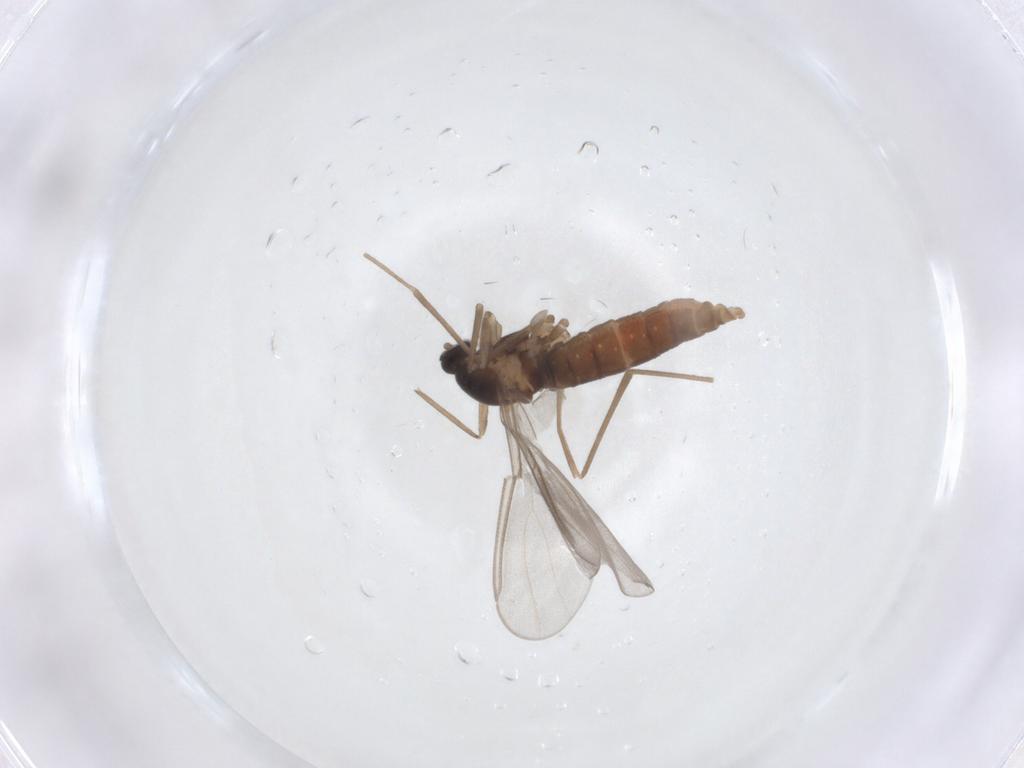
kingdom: Animalia
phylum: Arthropoda
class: Insecta
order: Diptera
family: Cecidomyiidae
